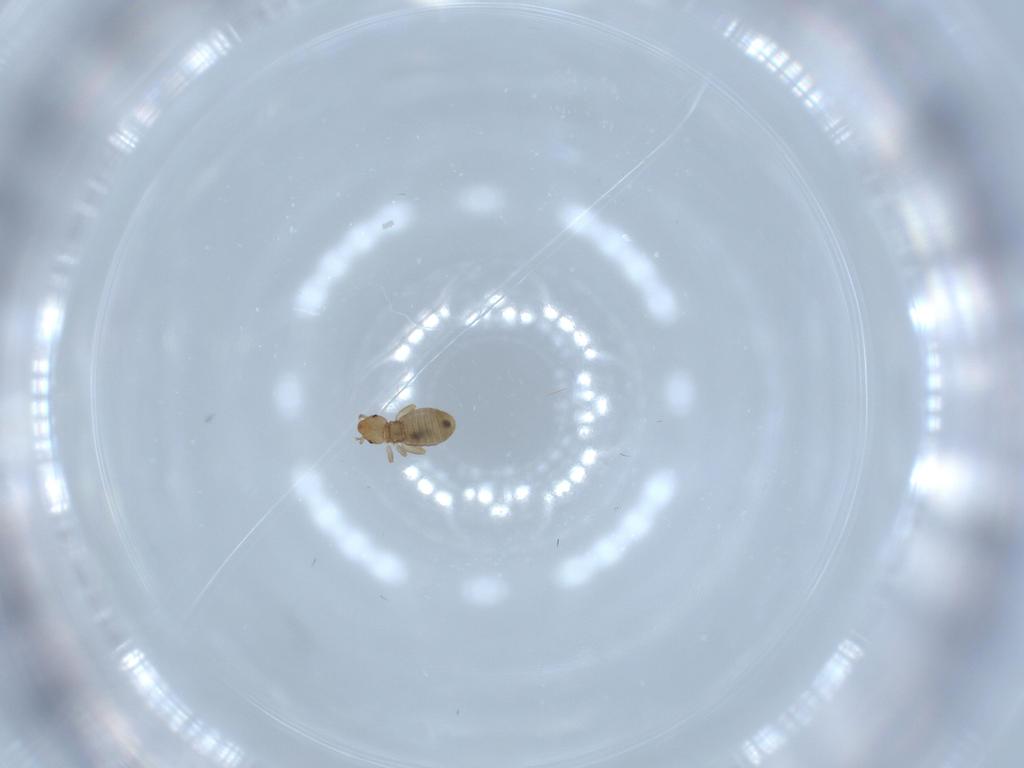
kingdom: Animalia
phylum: Arthropoda
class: Insecta
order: Psocodea
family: Liposcelididae
